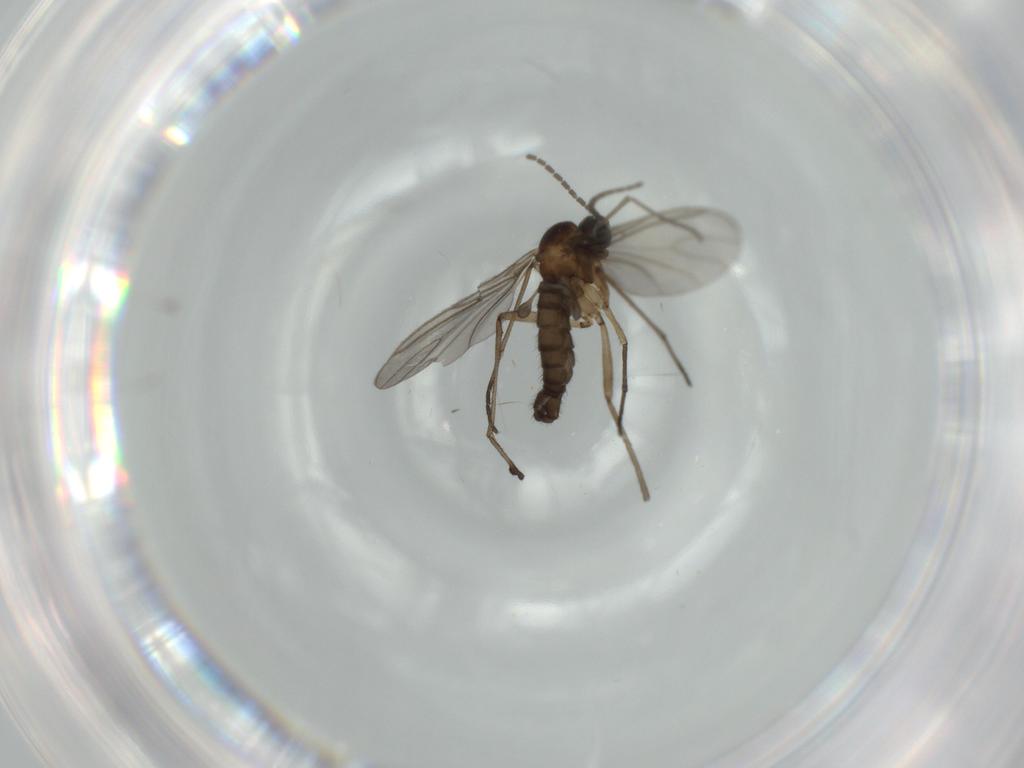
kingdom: Animalia
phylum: Arthropoda
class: Insecta
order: Diptera
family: Sciaridae
